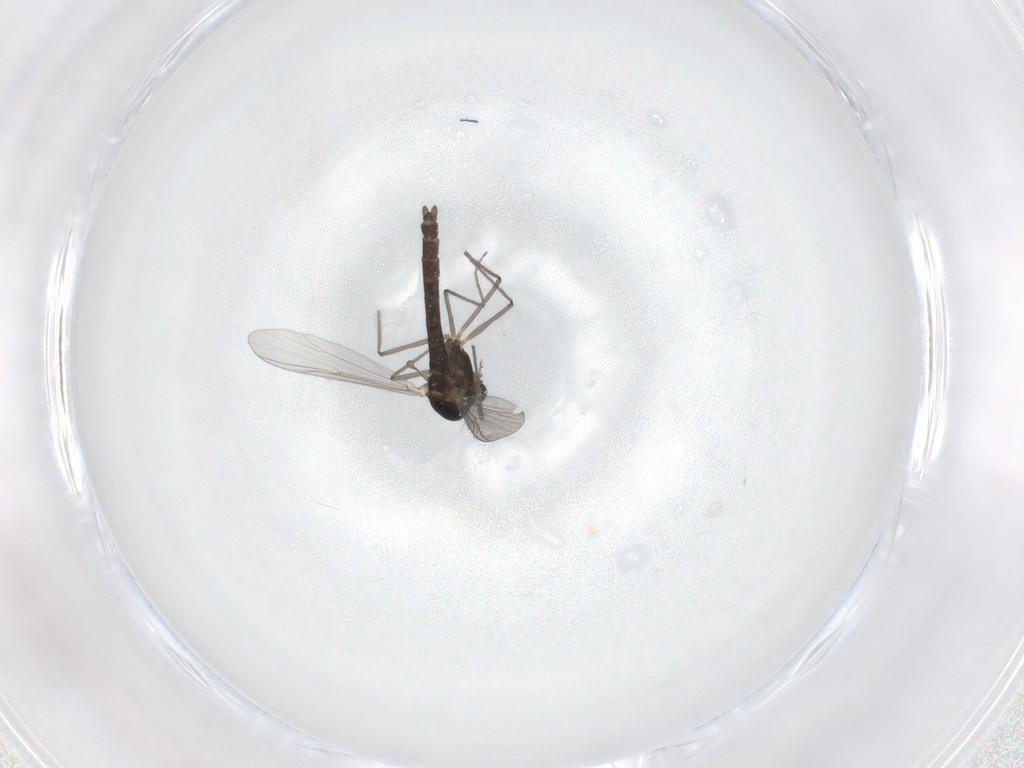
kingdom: Animalia
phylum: Arthropoda
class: Insecta
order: Diptera
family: Chironomidae
